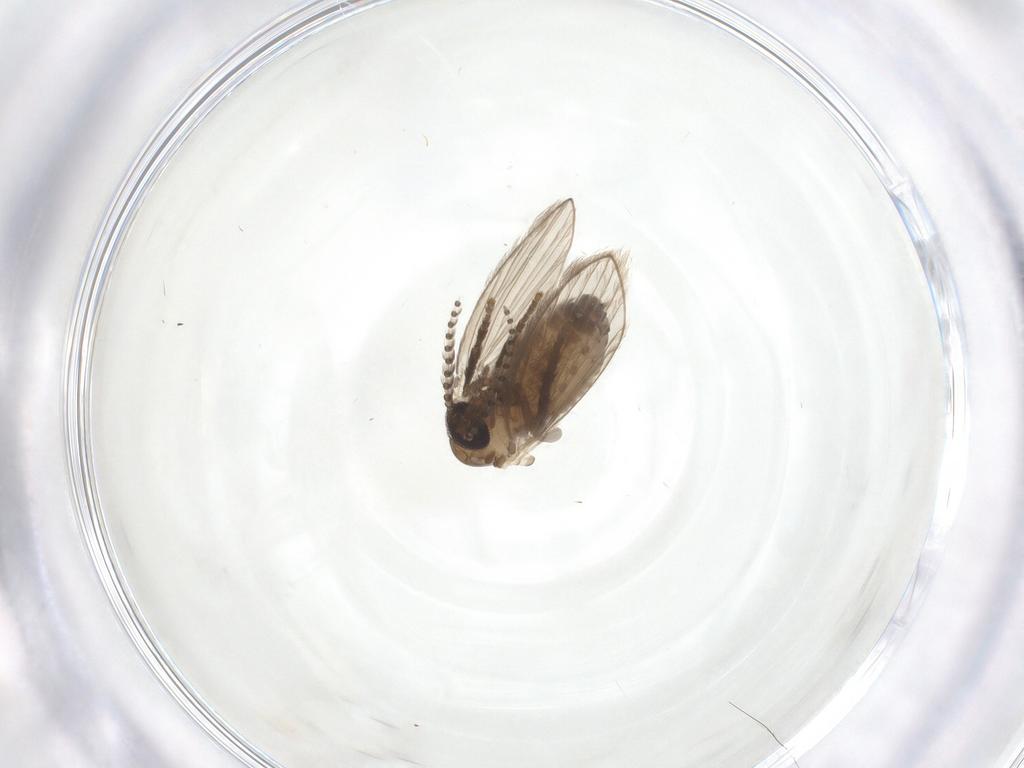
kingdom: Animalia
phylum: Arthropoda
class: Insecta
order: Diptera
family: Psychodidae
